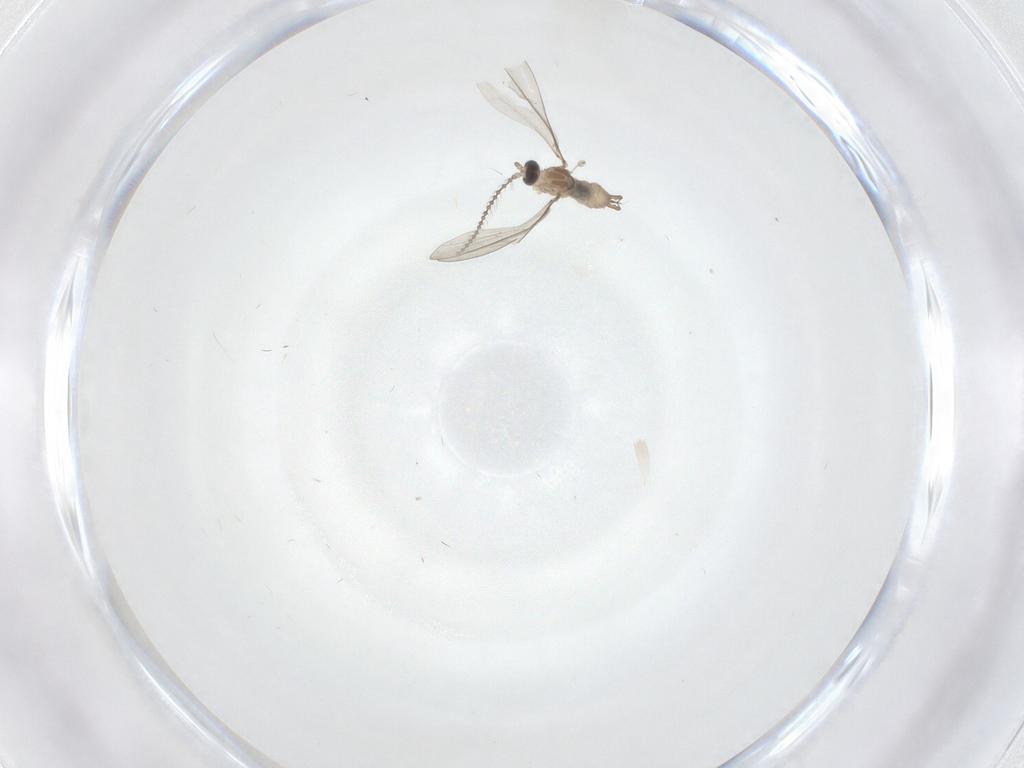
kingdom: Animalia
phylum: Arthropoda
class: Insecta
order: Diptera
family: Cecidomyiidae
